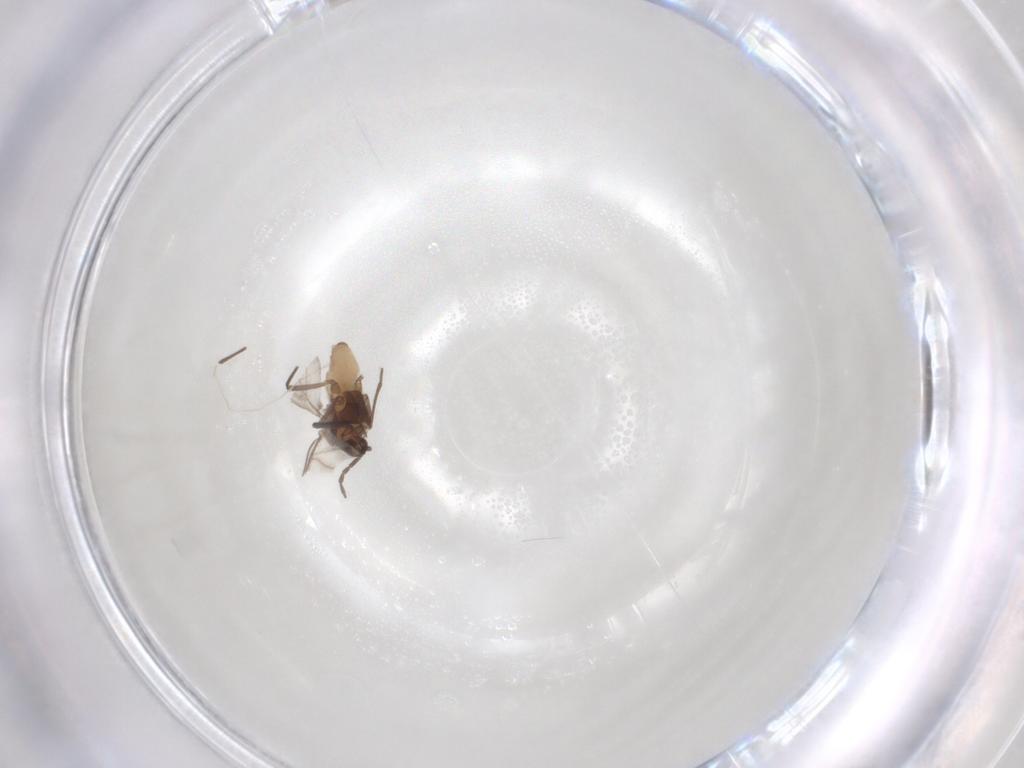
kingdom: Animalia
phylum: Arthropoda
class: Insecta
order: Hemiptera
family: Aphididae
